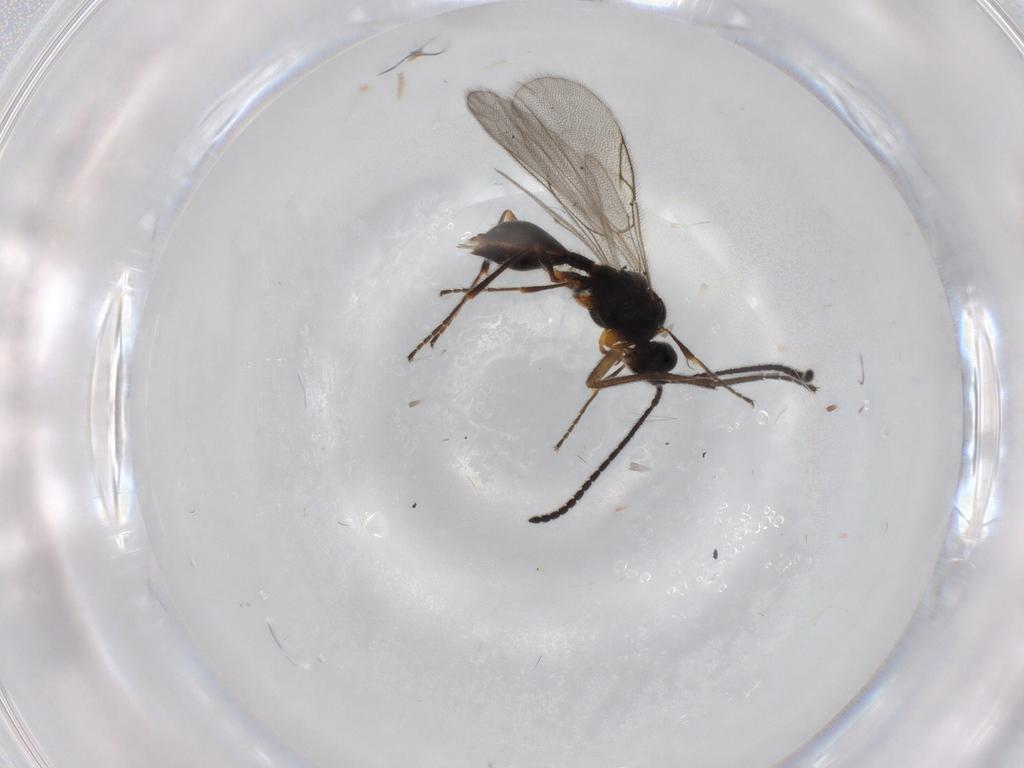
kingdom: Animalia
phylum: Arthropoda
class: Insecta
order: Hymenoptera
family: Diapriidae
